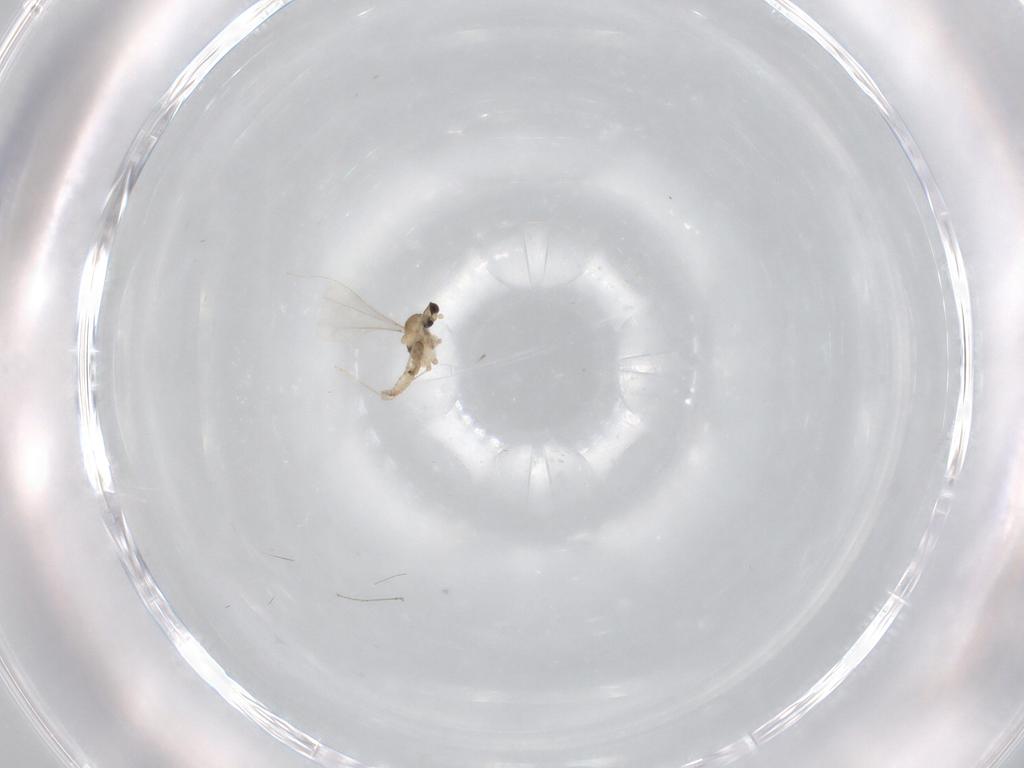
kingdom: Animalia
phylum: Arthropoda
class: Insecta
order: Diptera
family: Cecidomyiidae
